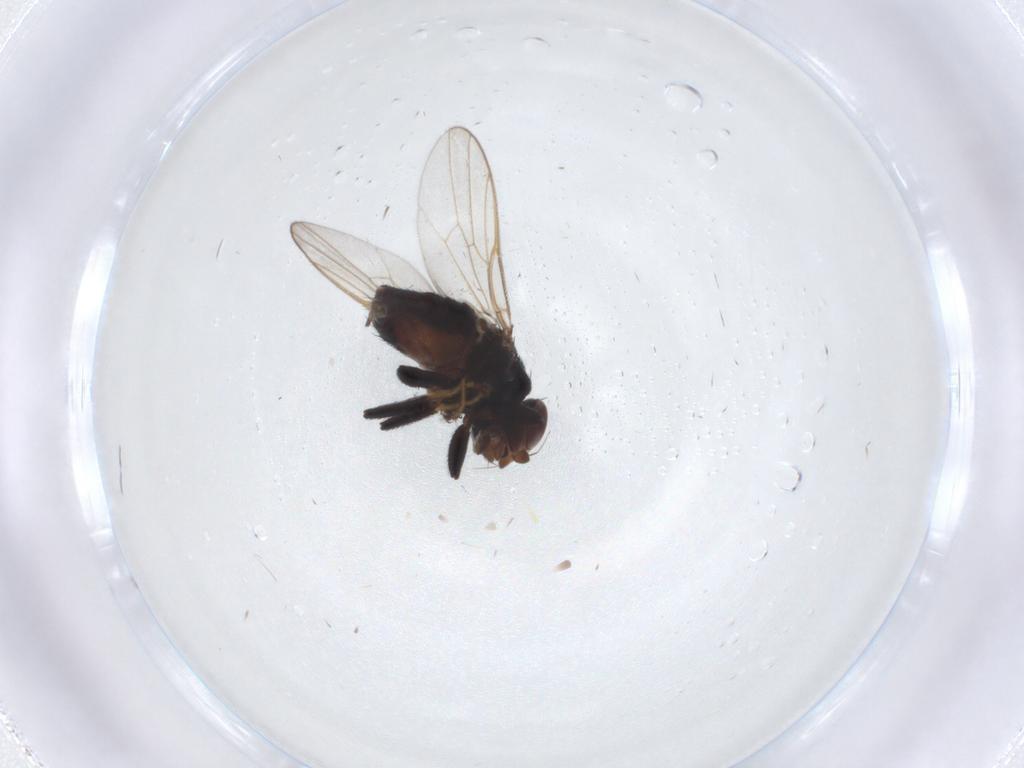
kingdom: Animalia
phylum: Arthropoda
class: Insecta
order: Diptera
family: Chloropidae
